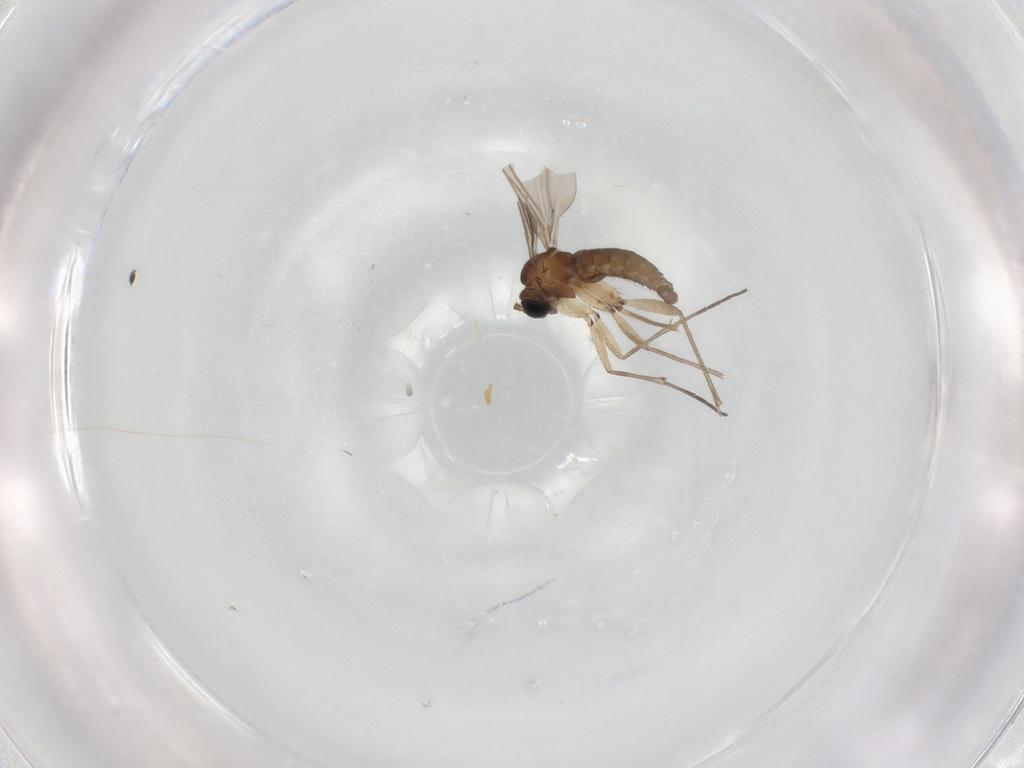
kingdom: Animalia
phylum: Arthropoda
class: Insecta
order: Diptera
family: Sciaridae
